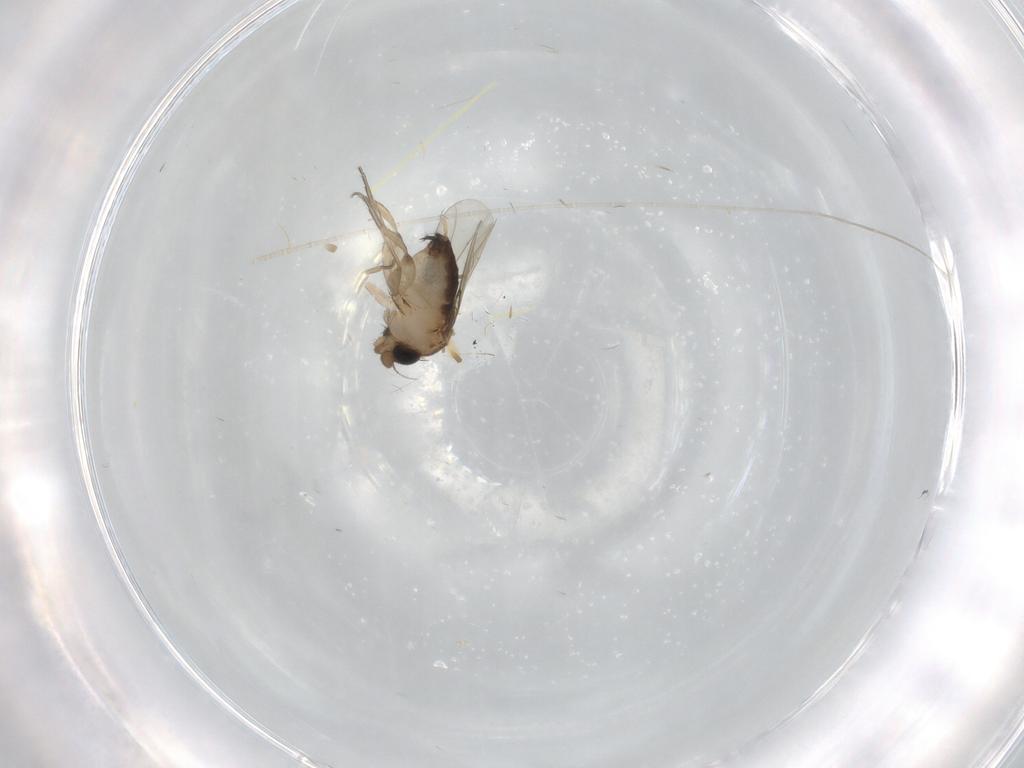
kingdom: Animalia
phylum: Arthropoda
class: Insecta
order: Diptera
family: Phoridae
